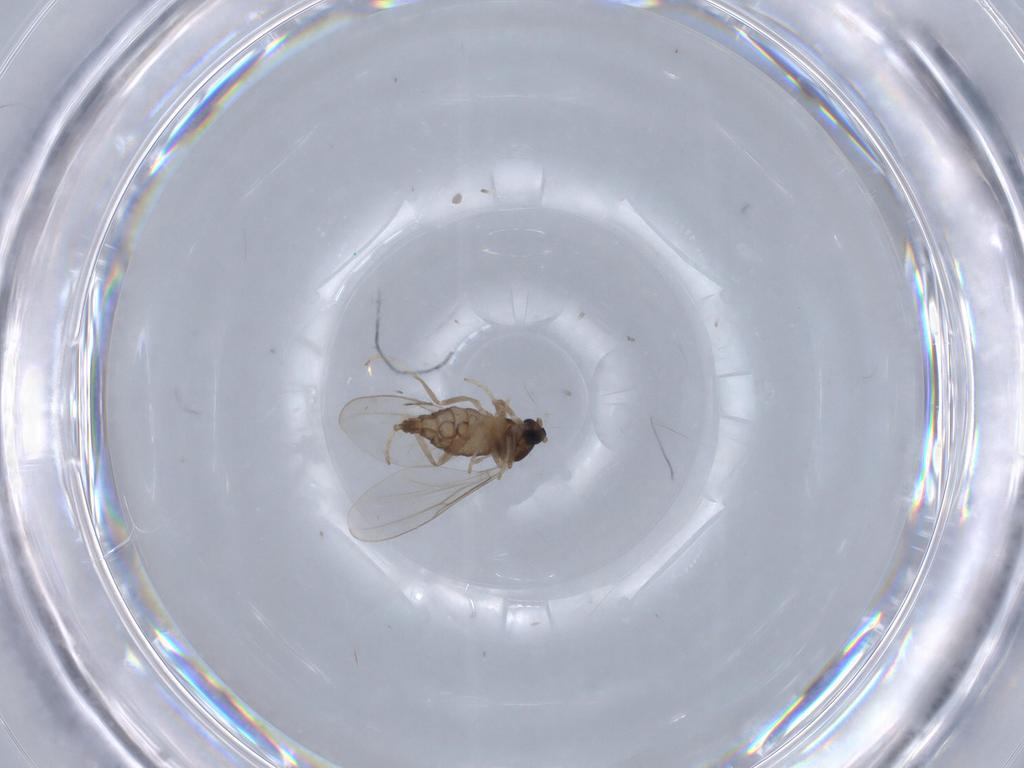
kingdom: Animalia
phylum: Arthropoda
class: Insecta
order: Diptera
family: Cecidomyiidae
